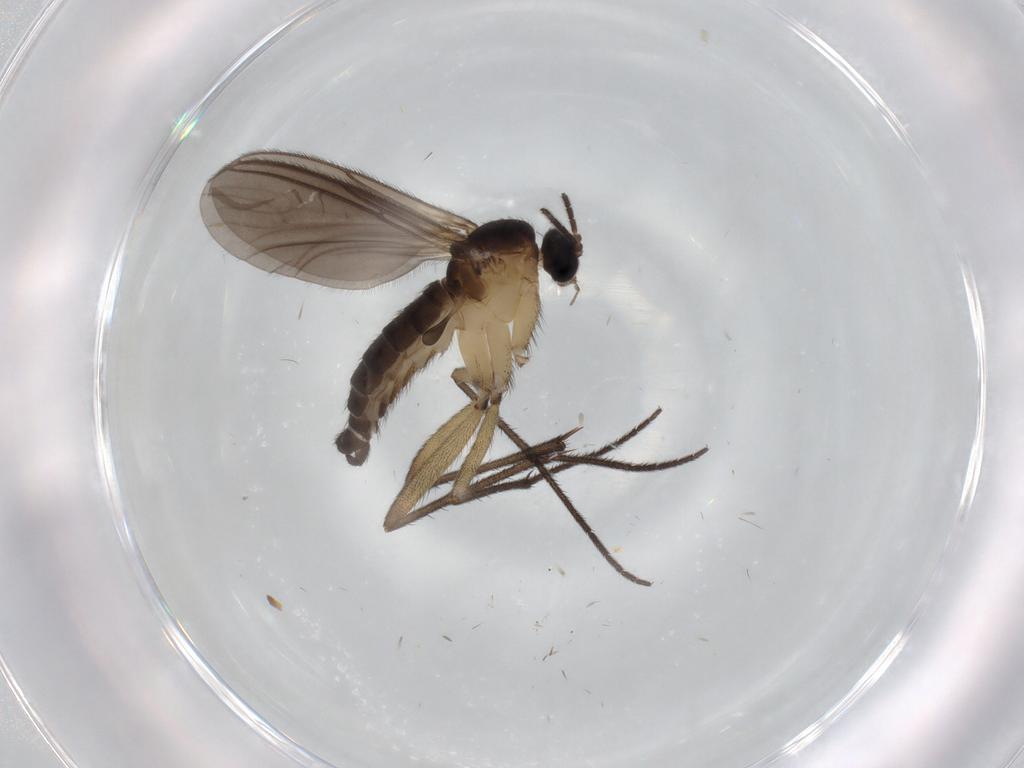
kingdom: Animalia
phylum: Arthropoda
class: Insecta
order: Diptera
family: Sciaridae
